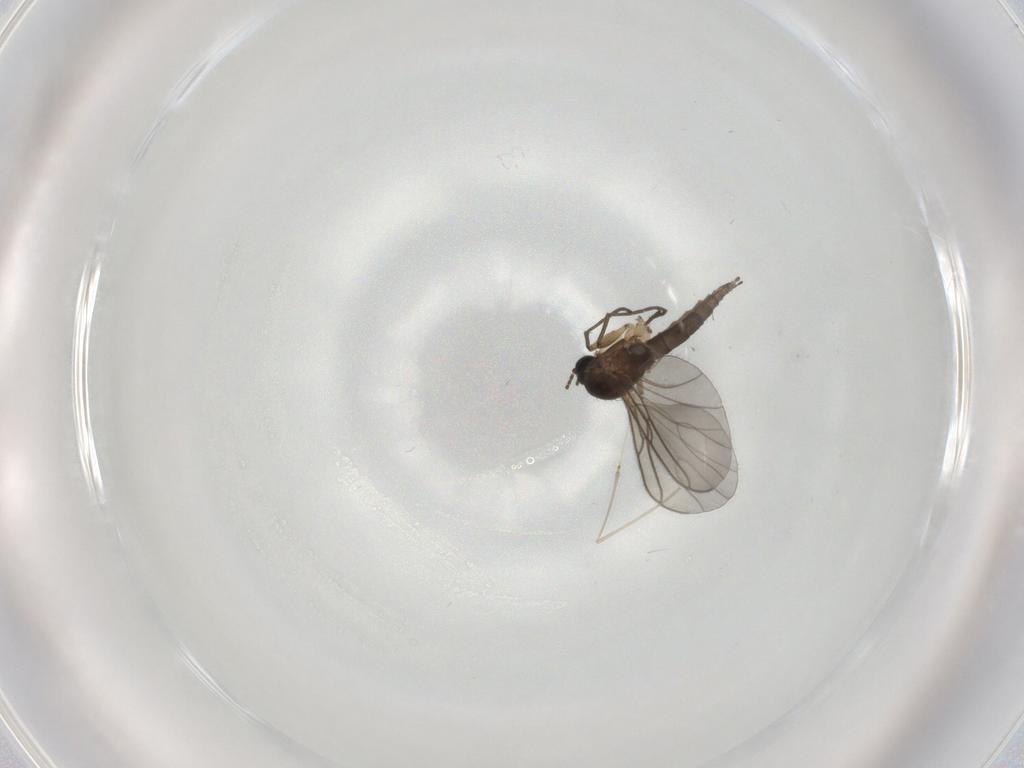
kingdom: Animalia
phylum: Arthropoda
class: Insecta
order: Diptera
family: Sciaridae
